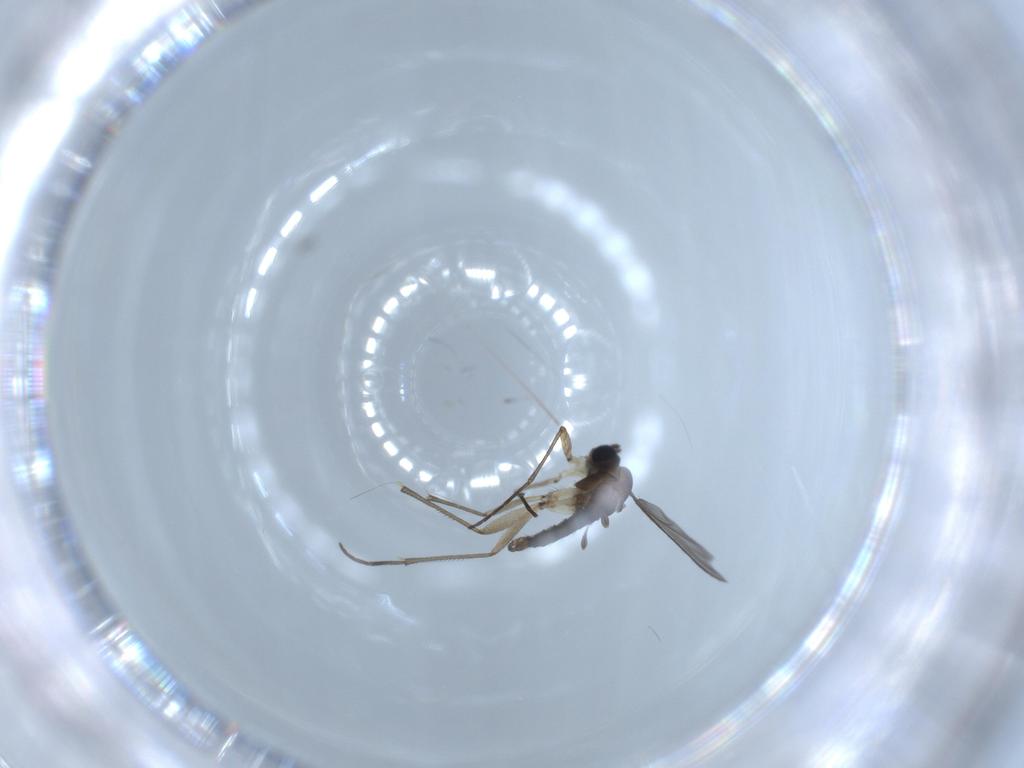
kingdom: Animalia
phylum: Arthropoda
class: Insecta
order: Diptera
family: Sciaridae
